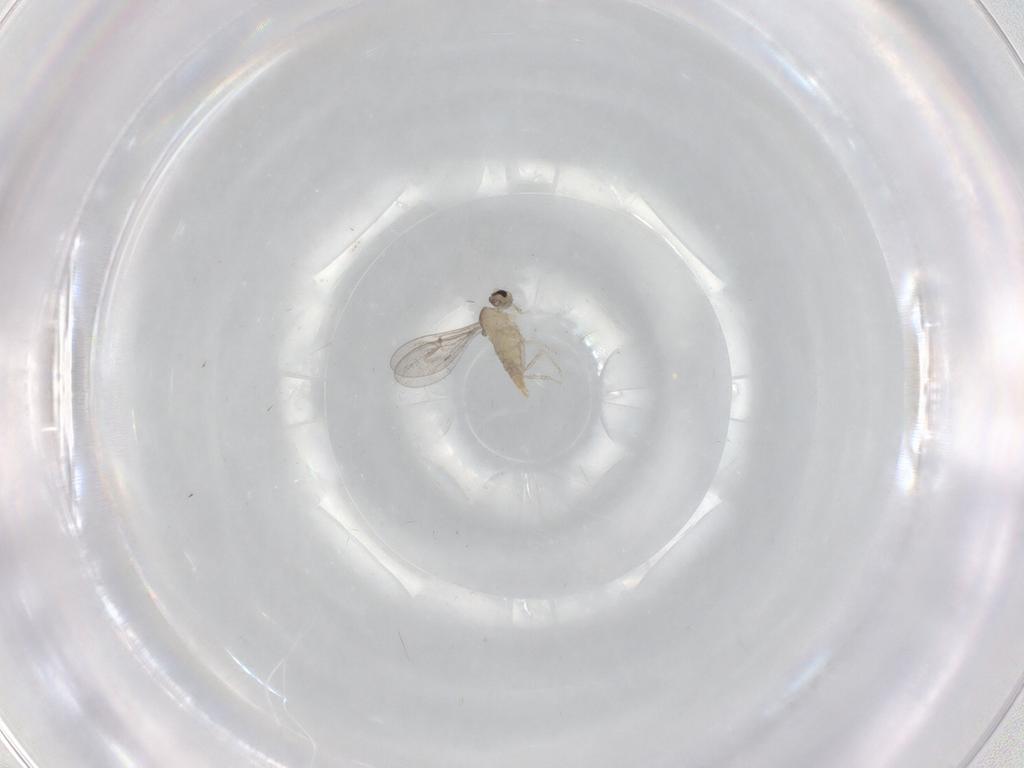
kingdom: Animalia
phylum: Arthropoda
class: Insecta
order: Diptera
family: Cecidomyiidae
